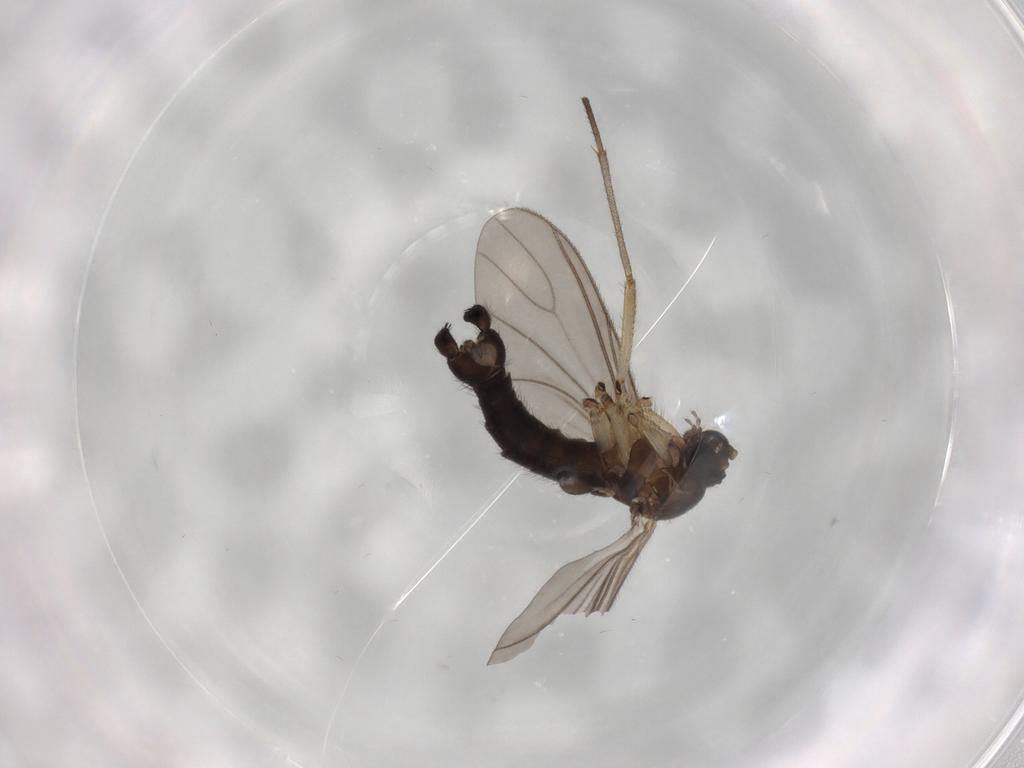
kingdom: Animalia
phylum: Arthropoda
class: Insecta
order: Diptera
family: Sciaridae
